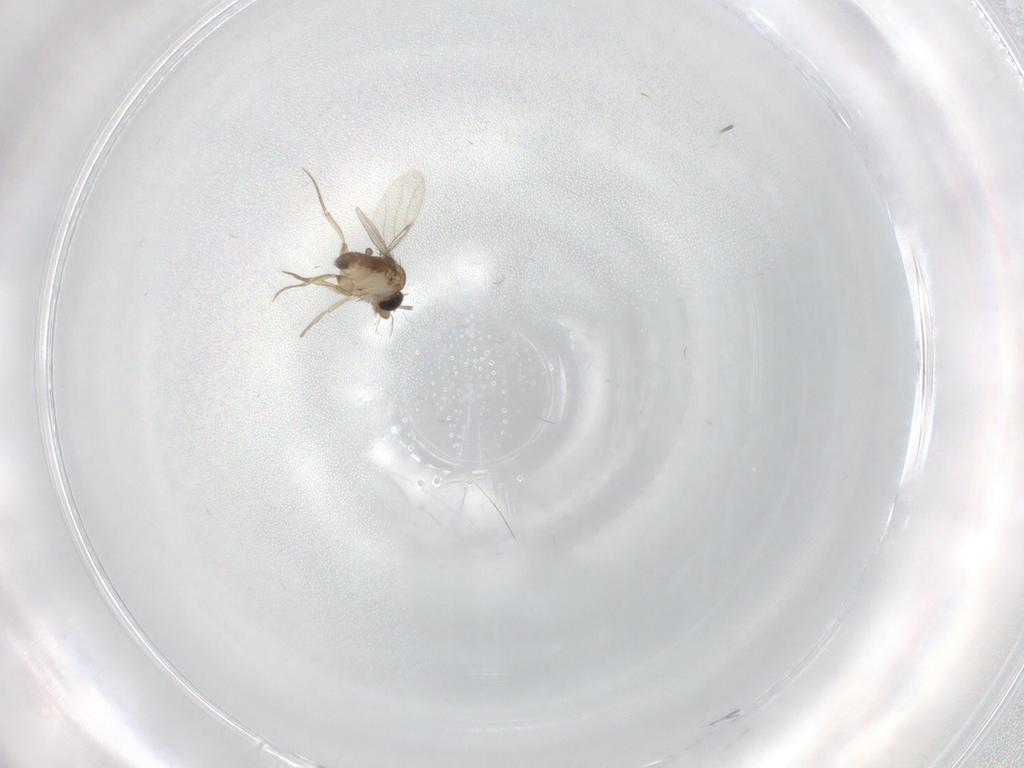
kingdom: Animalia
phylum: Arthropoda
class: Insecta
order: Diptera
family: Phoridae
